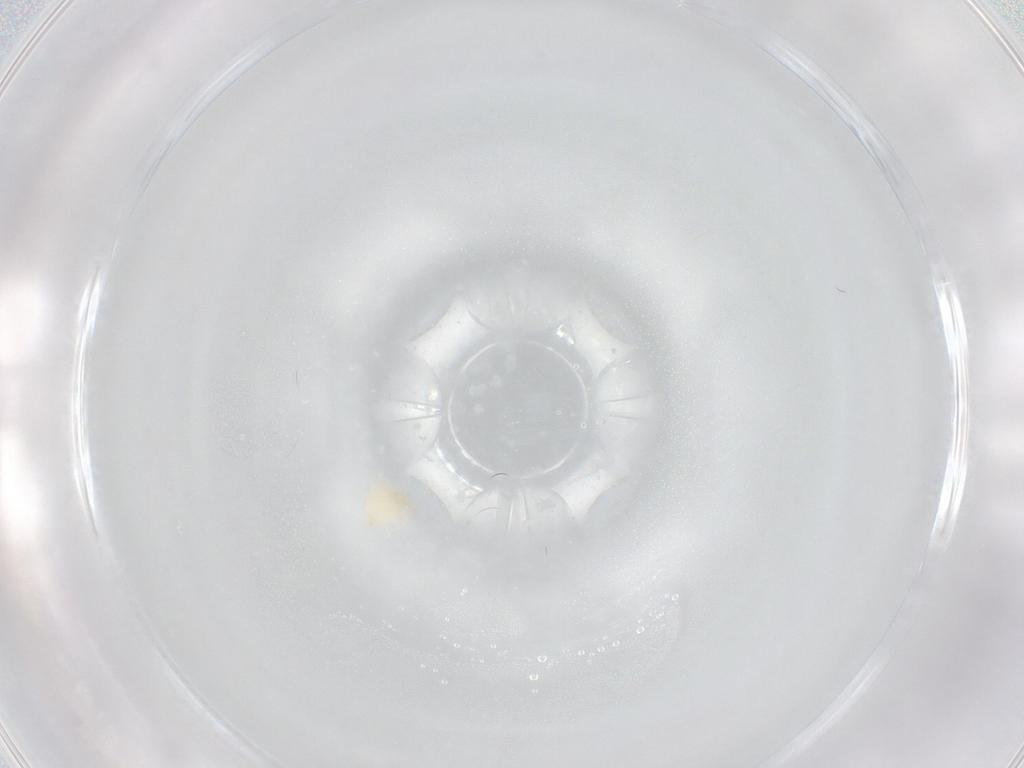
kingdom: Animalia
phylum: Arthropoda
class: Arachnida
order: Trombidiformes
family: Hydryphantidae
